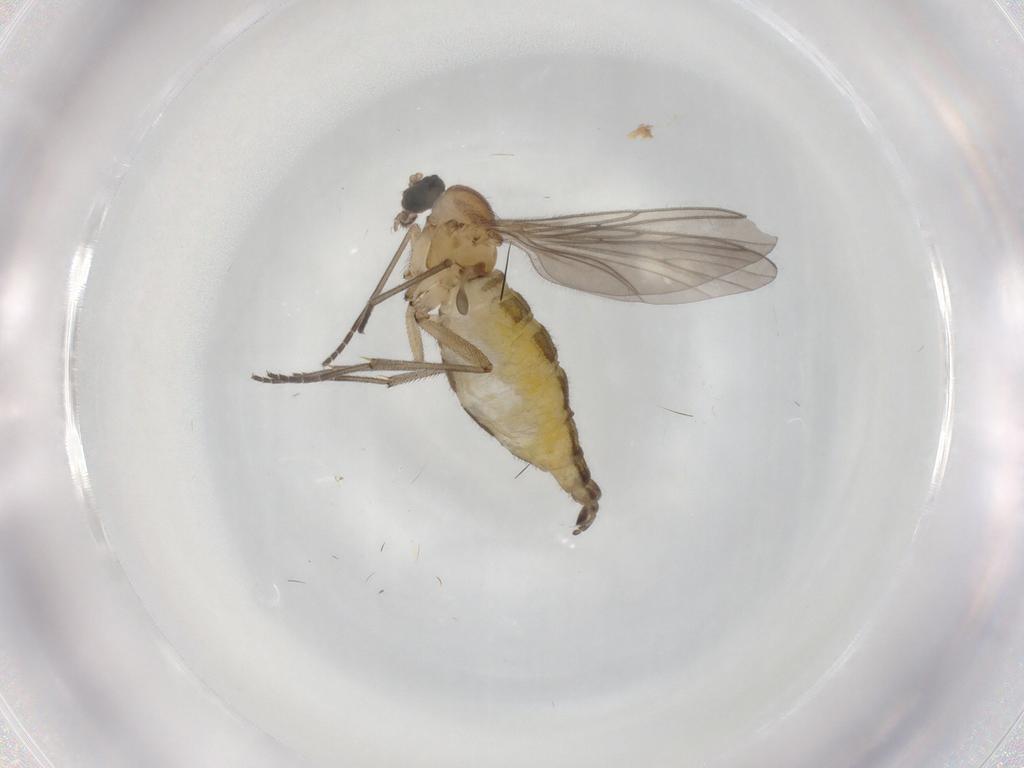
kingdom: Animalia
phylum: Arthropoda
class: Insecta
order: Diptera
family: Sciaridae
